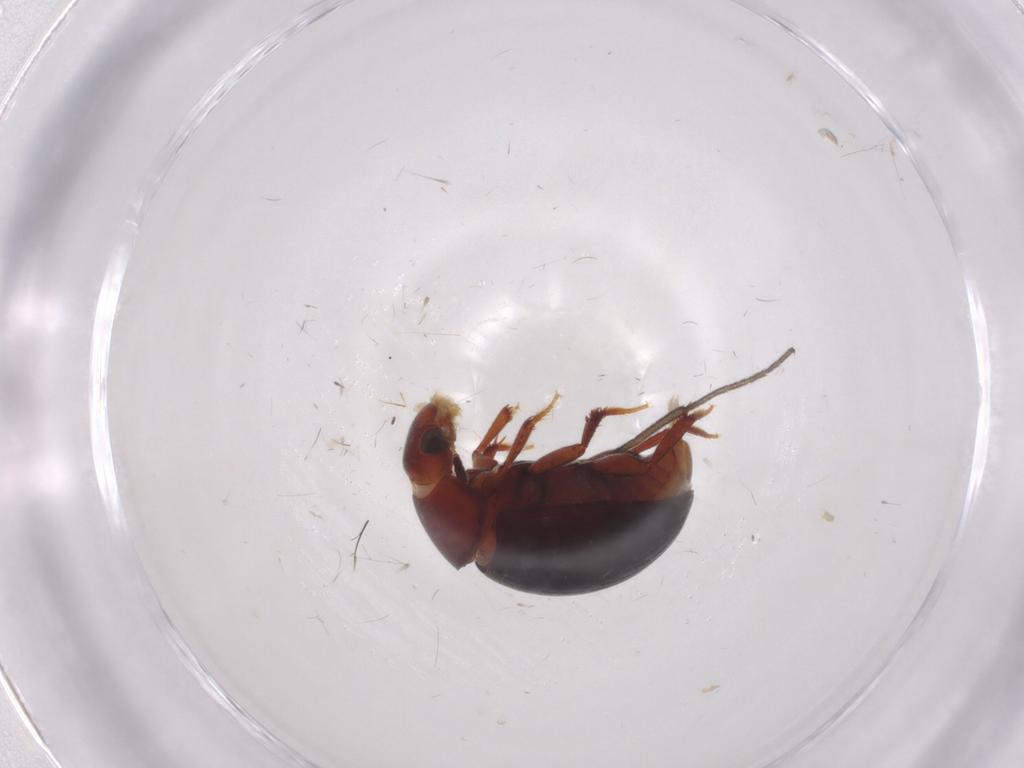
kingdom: Animalia
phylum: Arthropoda
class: Insecta
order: Coleoptera
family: Hydrophilidae
